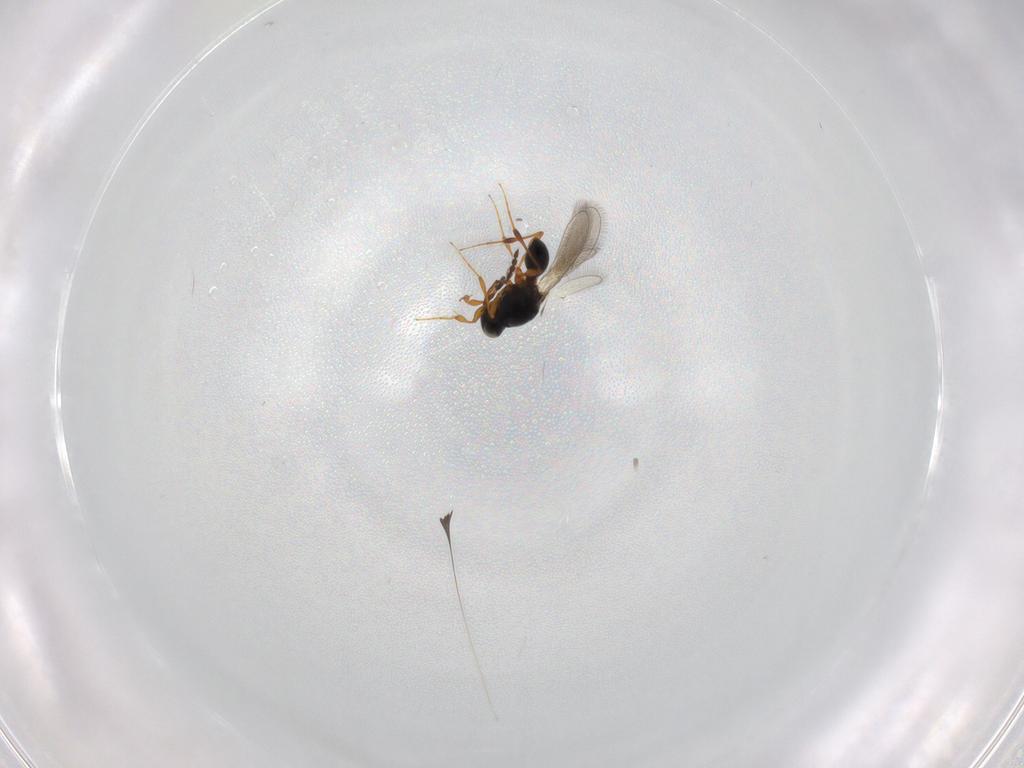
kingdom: Animalia
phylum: Arthropoda
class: Insecta
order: Hymenoptera
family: Platygastridae
